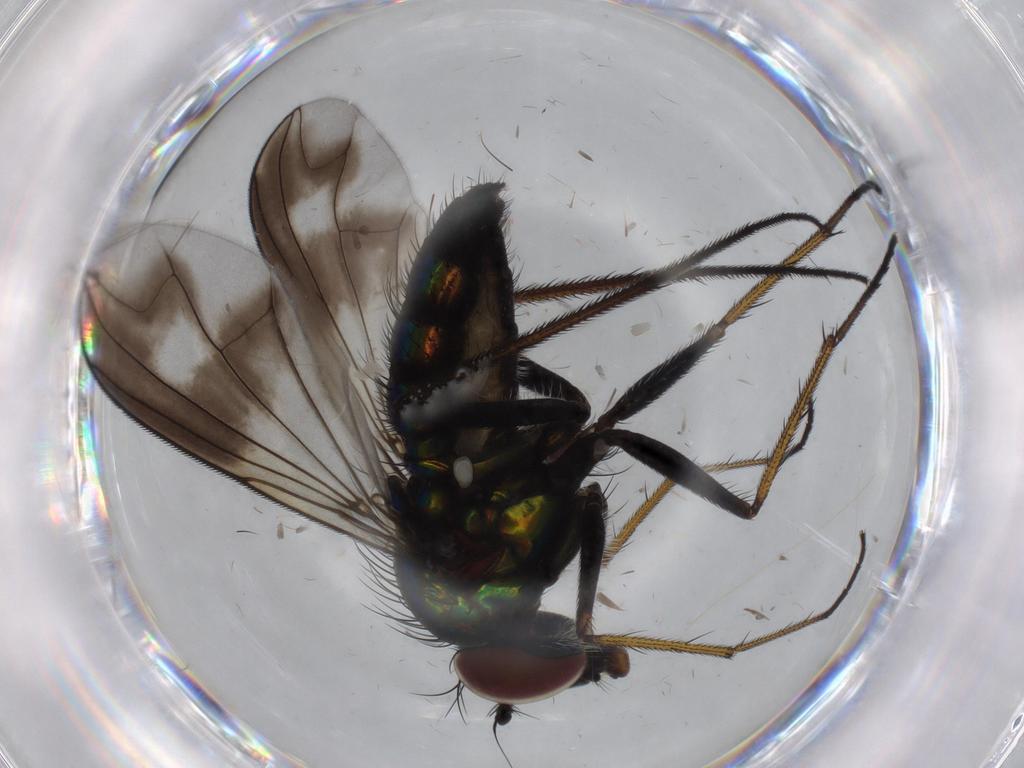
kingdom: Animalia
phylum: Arthropoda
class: Insecta
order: Diptera
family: Dolichopodidae
